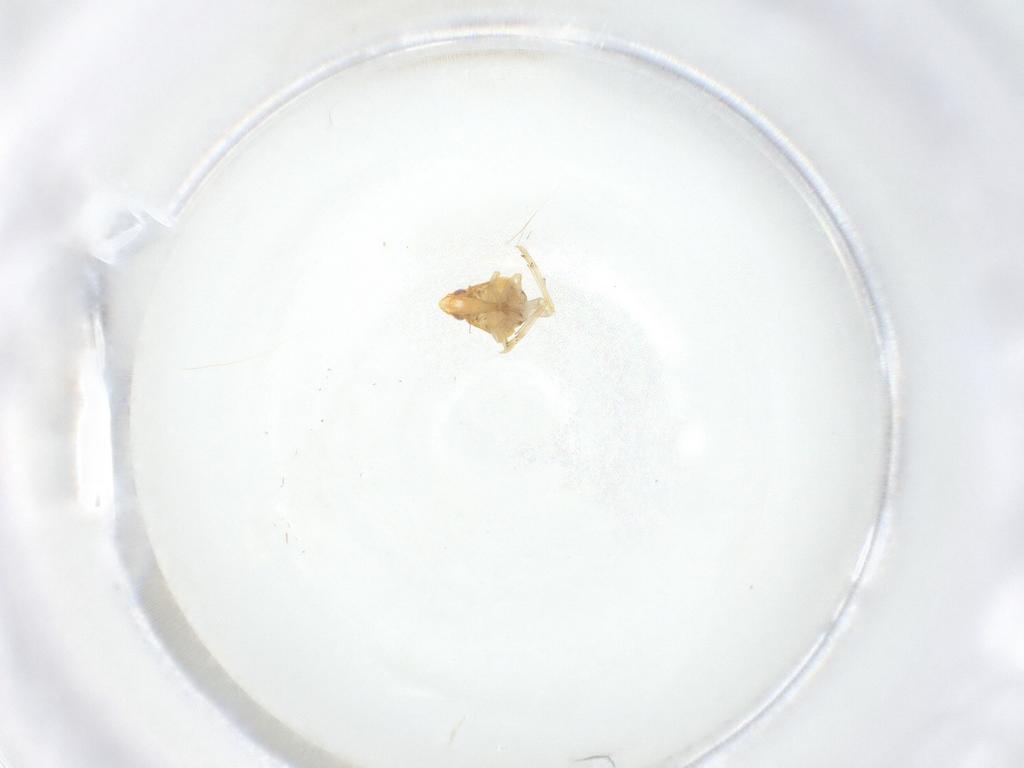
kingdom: Animalia
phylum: Arthropoda
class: Insecta
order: Hemiptera
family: Ricaniidae
